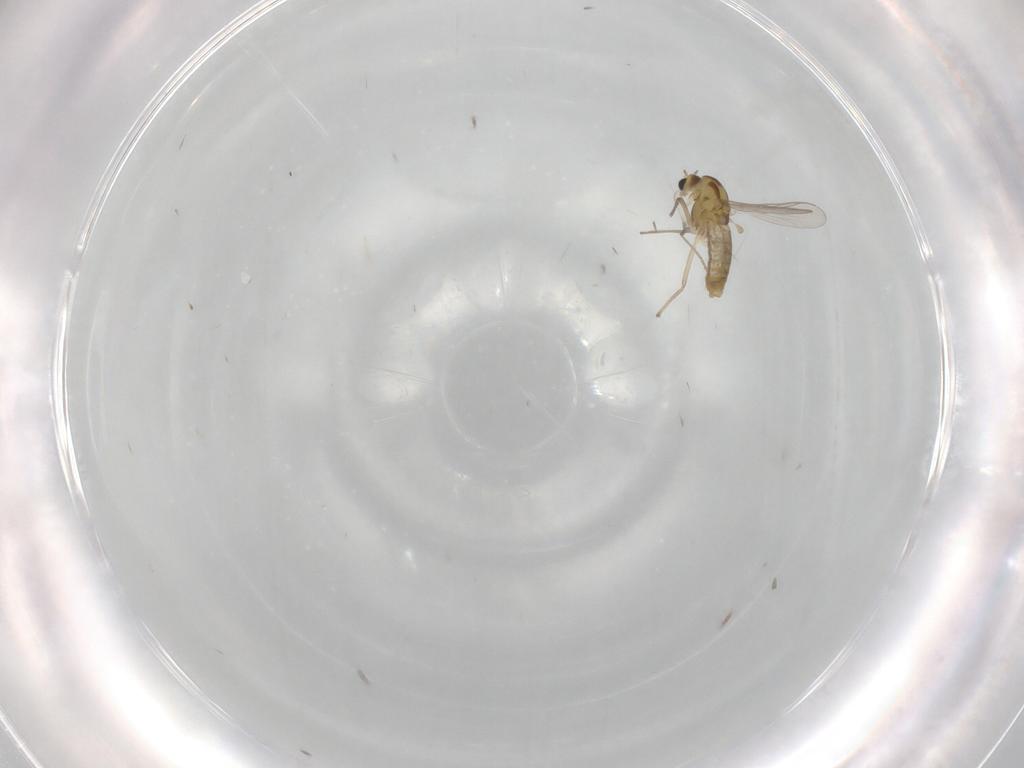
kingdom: Animalia
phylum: Arthropoda
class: Insecta
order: Diptera
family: Chironomidae
